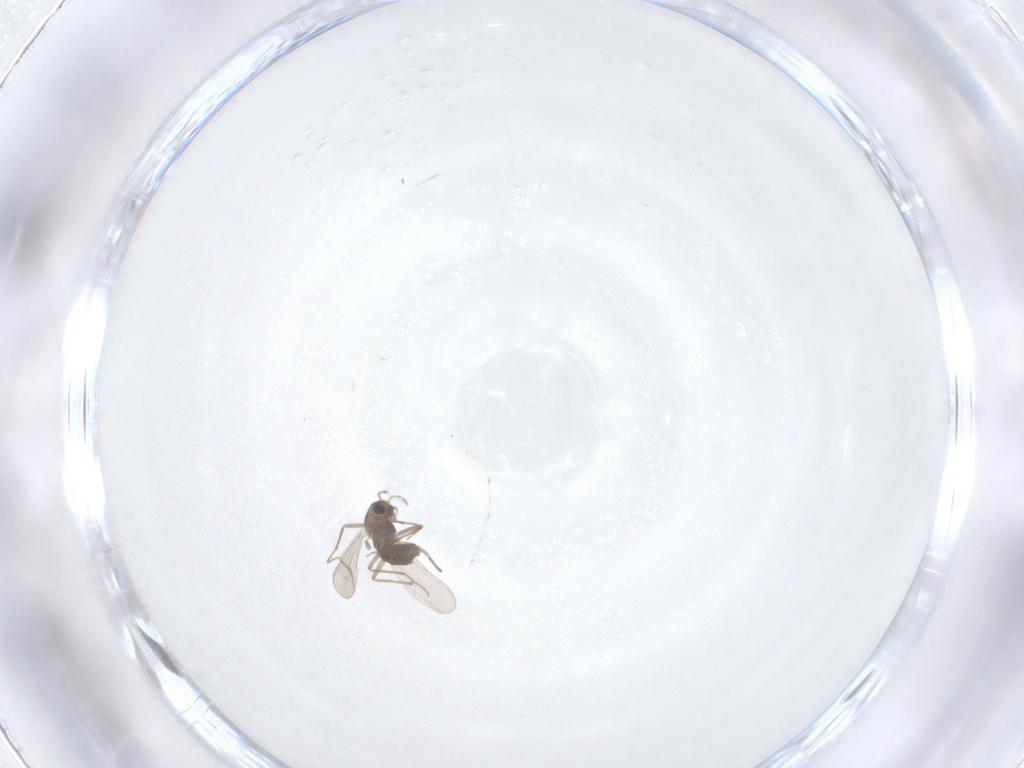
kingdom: Animalia
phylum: Arthropoda
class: Insecta
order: Diptera
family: Chironomidae
